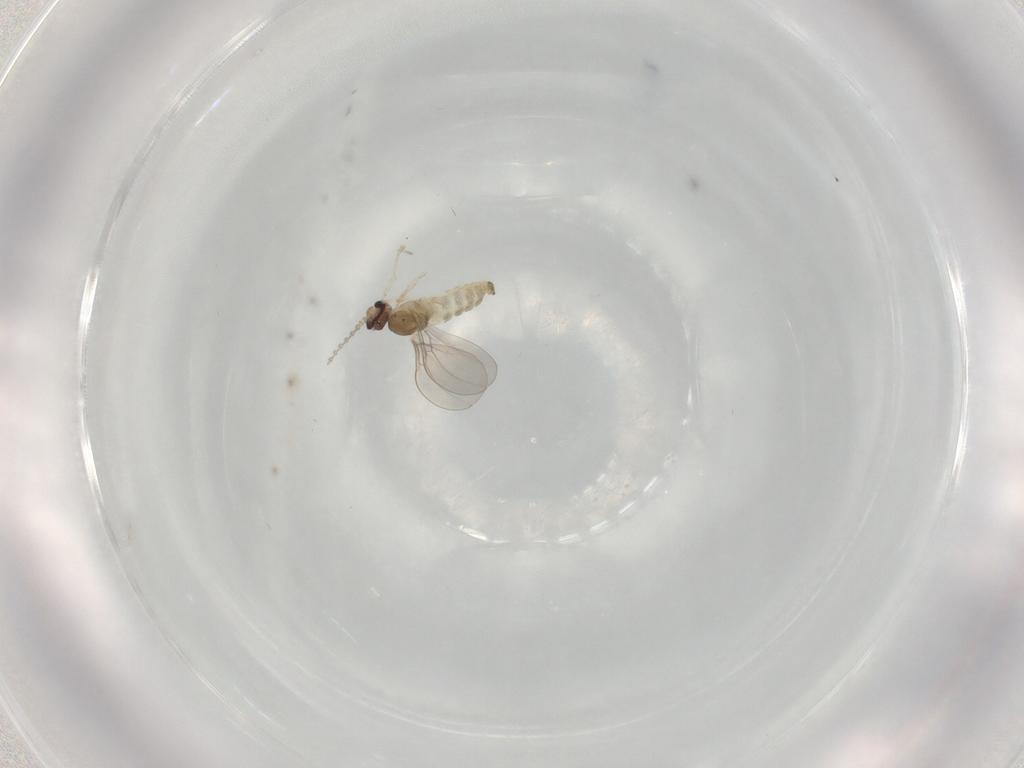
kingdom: Animalia
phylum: Arthropoda
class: Insecta
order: Diptera
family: Cecidomyiidae
